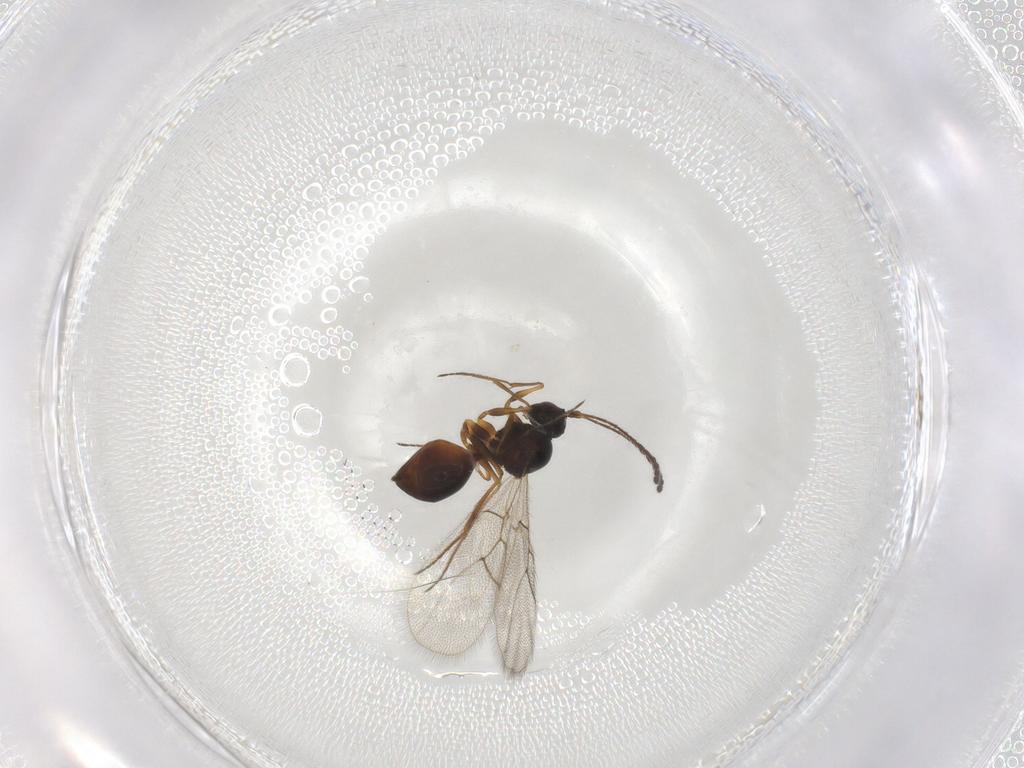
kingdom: Animalia
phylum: Arthropoda
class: Insecta
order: Hymenoptera
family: Figitidae
